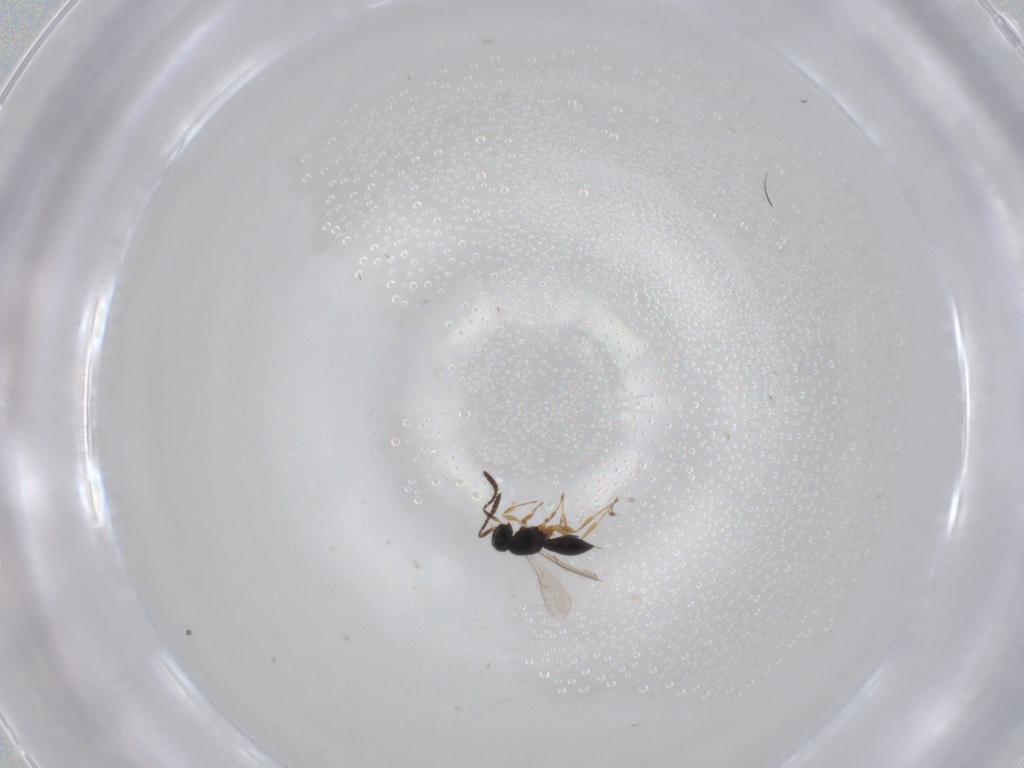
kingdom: Animalia
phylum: Arthropoda
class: Insecta
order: Hymenoptera
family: Scelionidae
